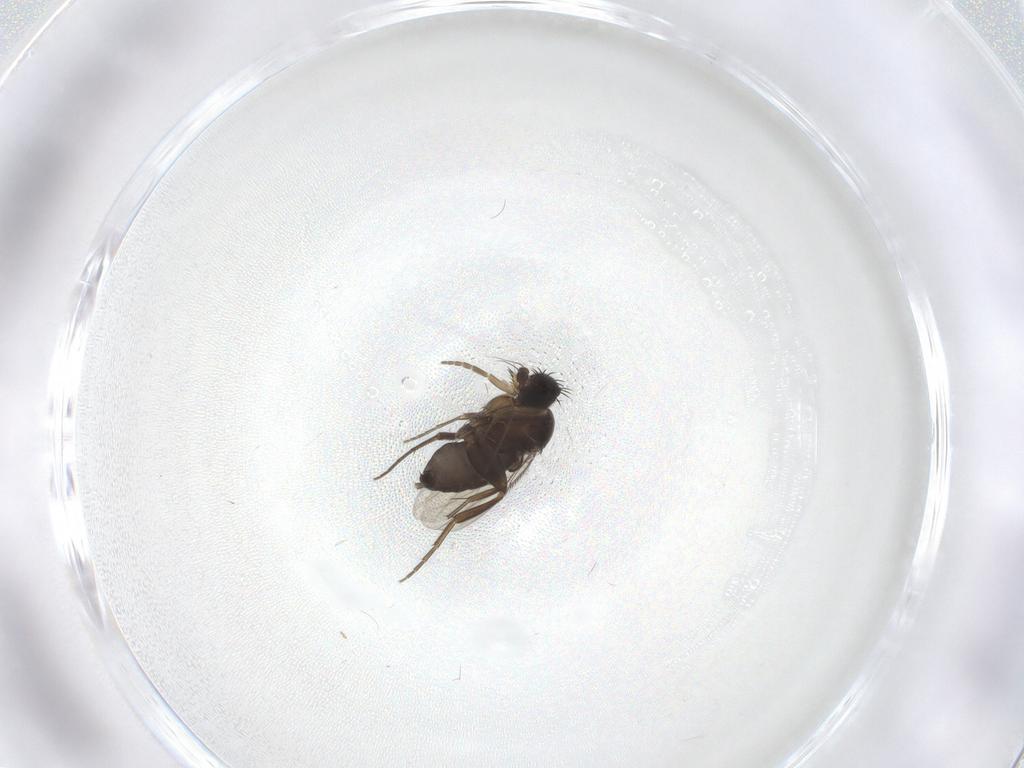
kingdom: Animalia
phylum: Arthropoda
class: Insecta
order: Diptera
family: Phoridae
